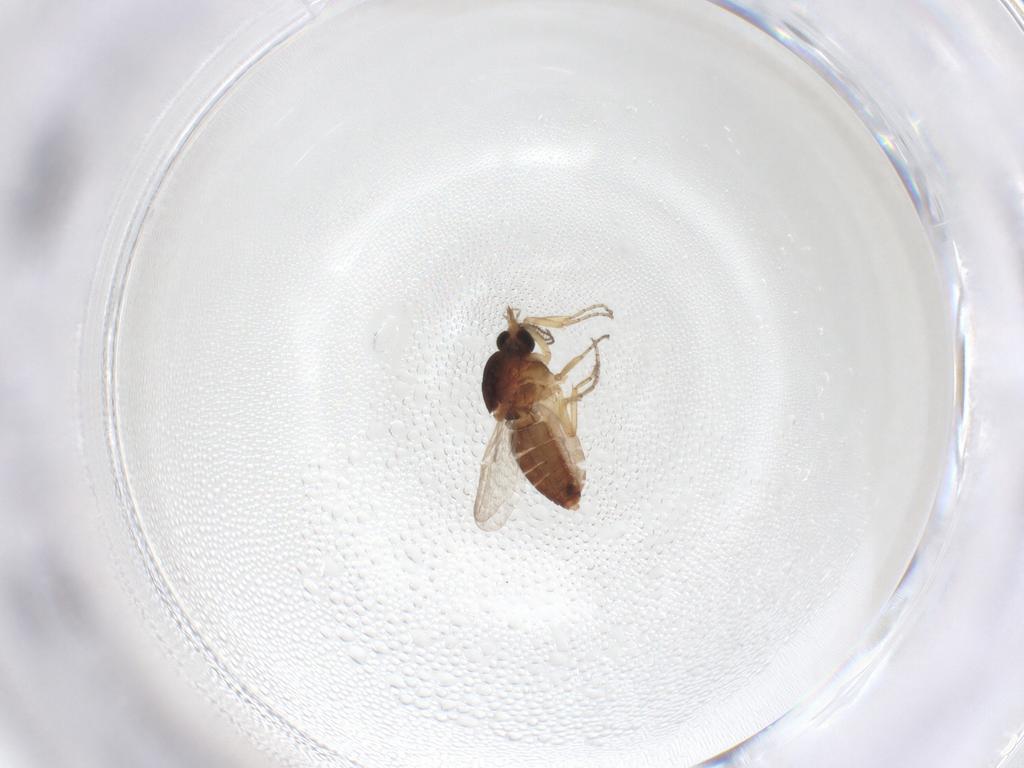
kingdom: Animalia
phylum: Arthropoda
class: Insecta
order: Diptera
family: Ceratopogonidae
